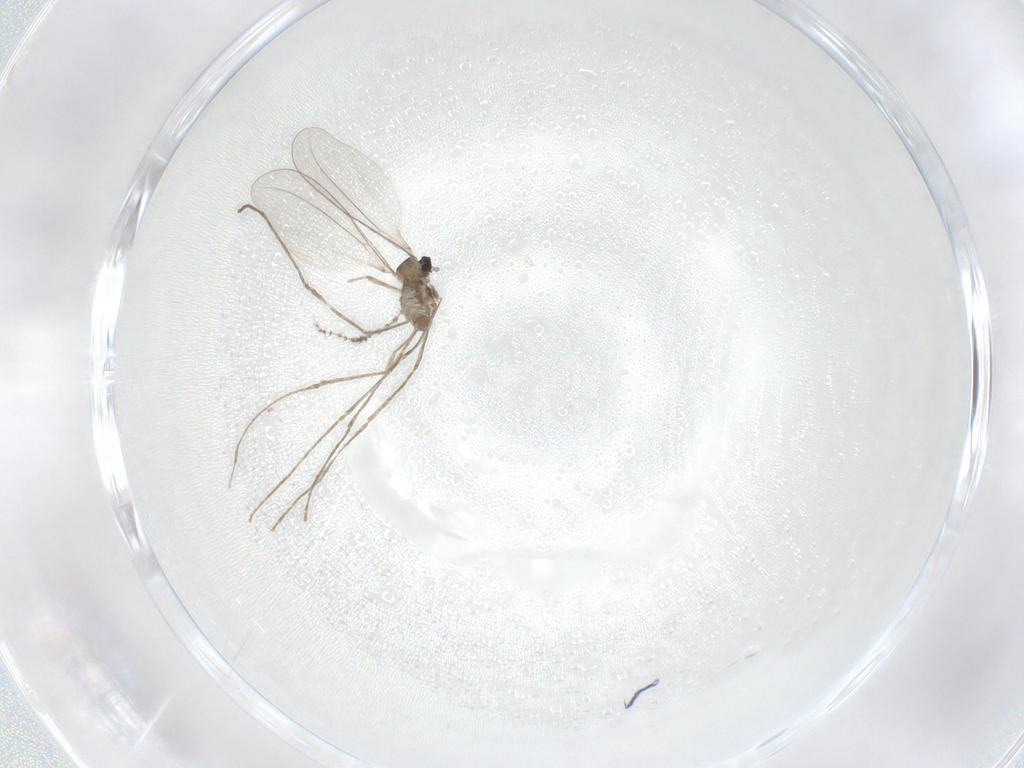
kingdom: Animalia
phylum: Arthropoda
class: Insecta
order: Diptera
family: Cecidomyiidae
